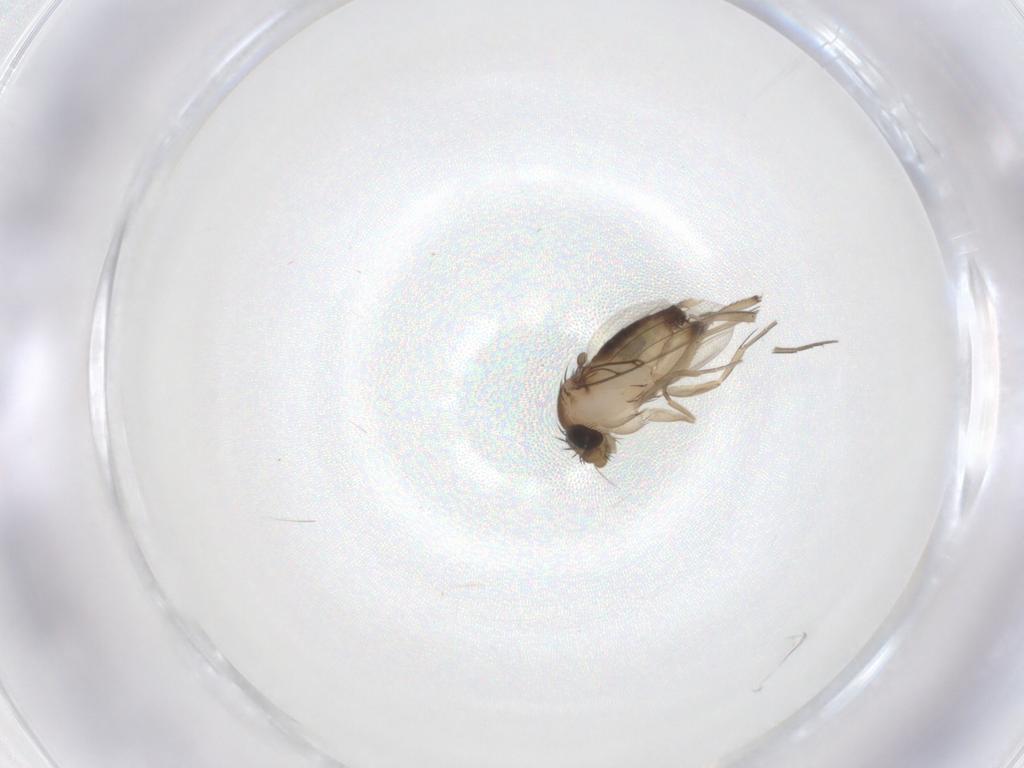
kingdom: Animalia
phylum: Arthropoda
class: Insecta
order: Diptera
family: Phoridae
